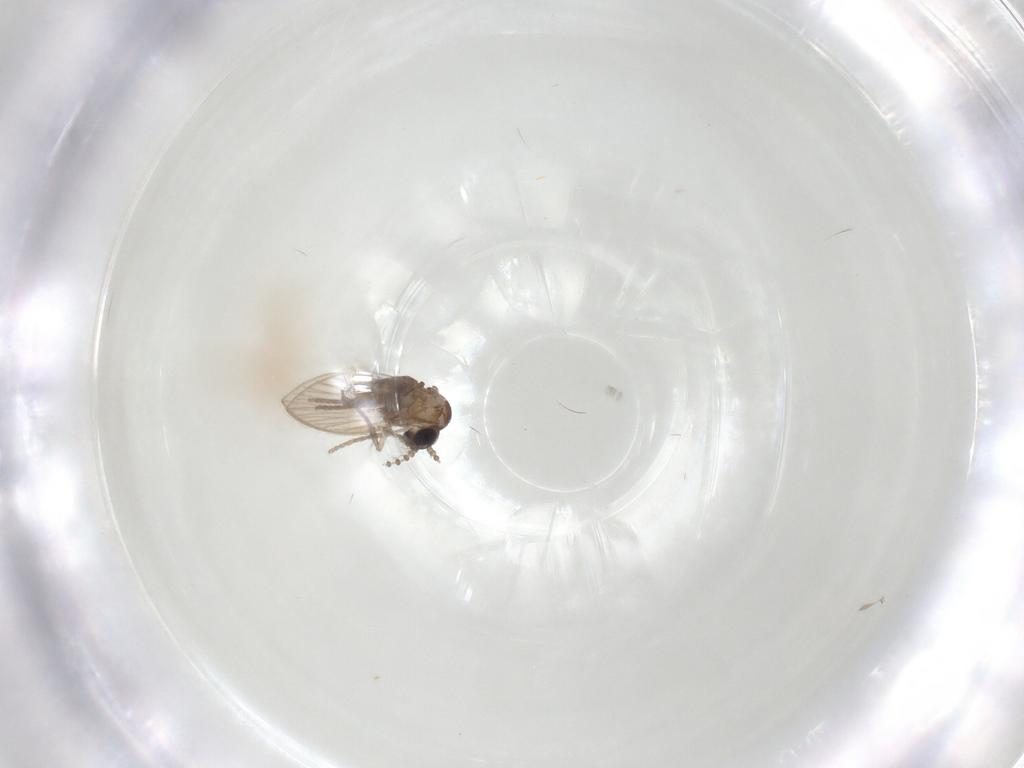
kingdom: Animalia
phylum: Arthropoda
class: Insecta
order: Diptera
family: Psychodidae
